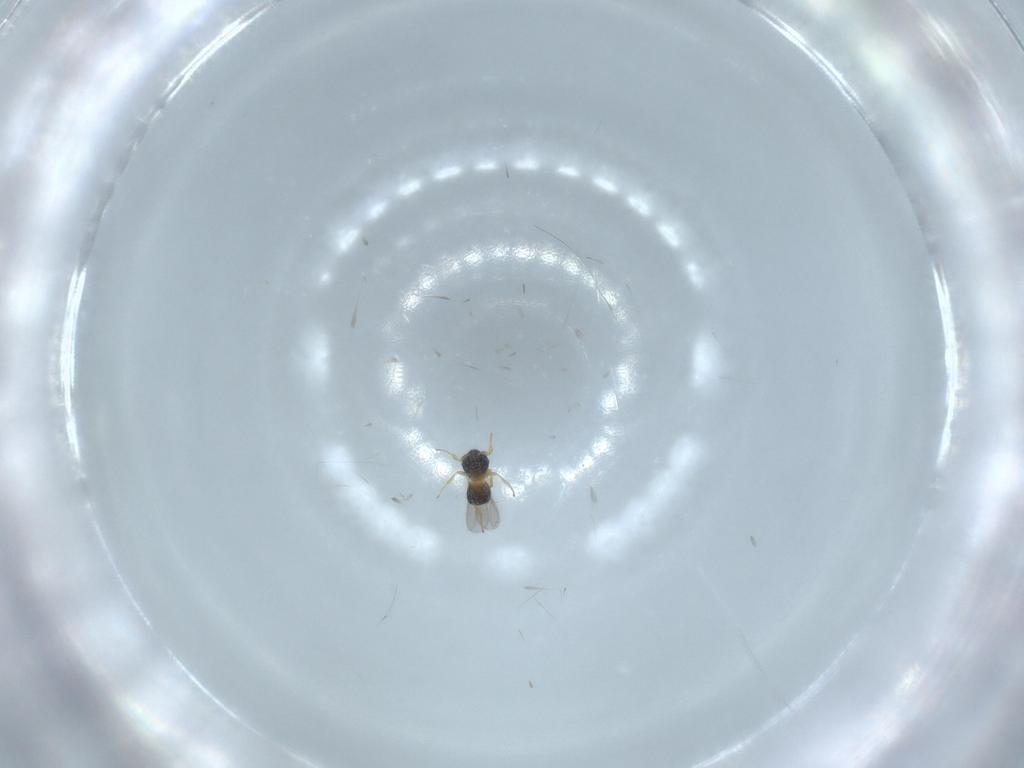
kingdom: Animalia
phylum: Arthropoda
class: Insecta
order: Hymenoptera
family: Scelionidae
